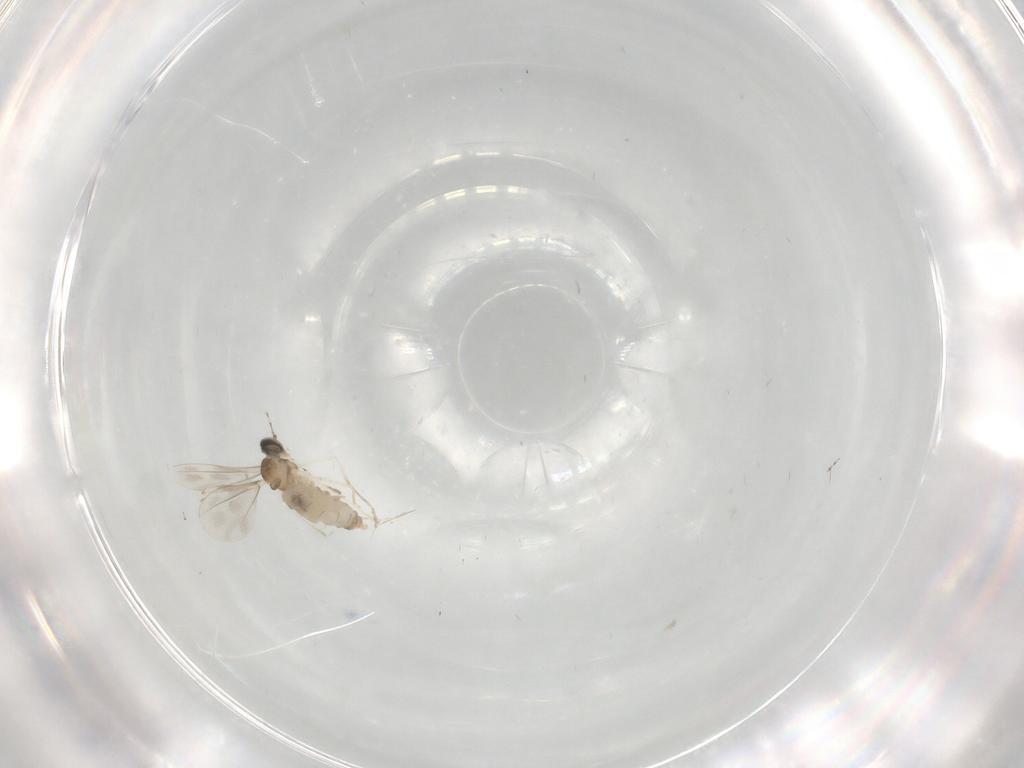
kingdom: Animalia
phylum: Arthropoda
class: Insecta
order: Diptera
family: Cecidomyiidae
